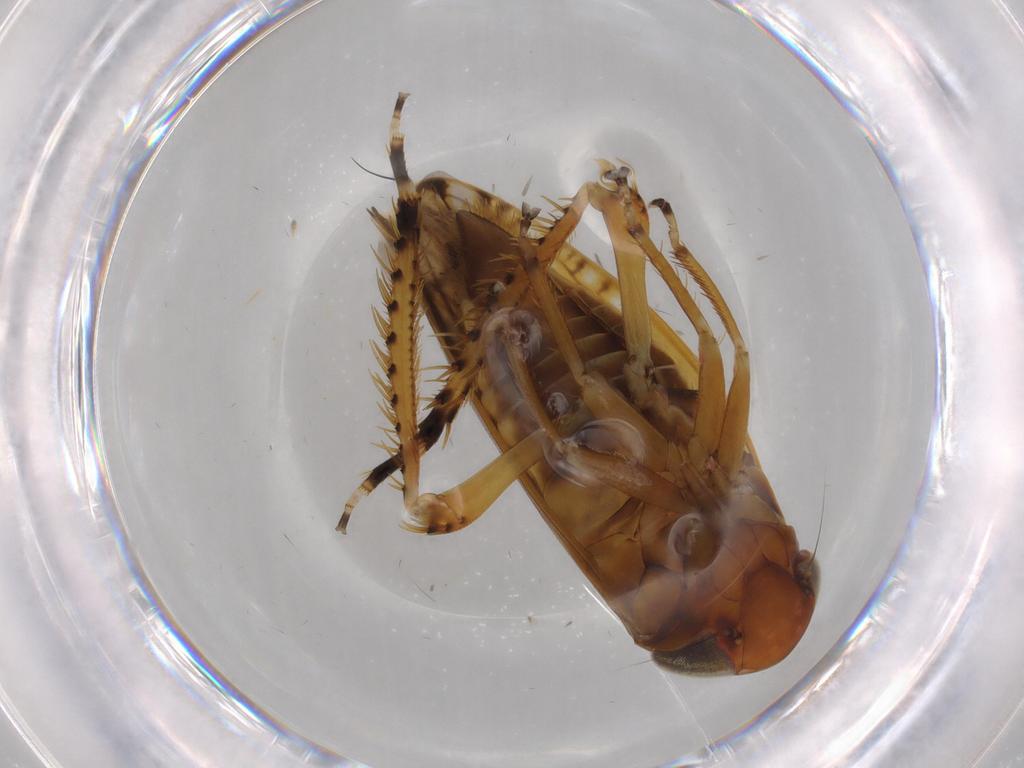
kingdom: Animalia
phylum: Arthropoda
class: Insecta
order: Hemiptera
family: Cicadellidae
